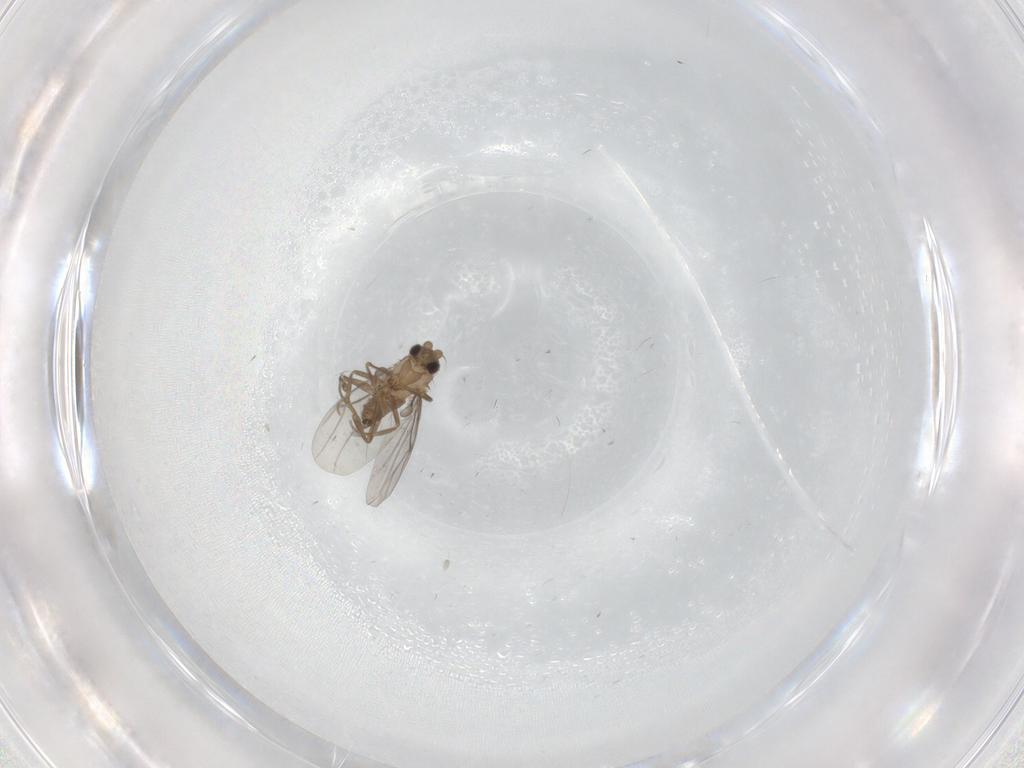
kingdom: Animalia
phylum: Arthropoda
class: Insecta
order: Diptera
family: Ceratopogonidae
